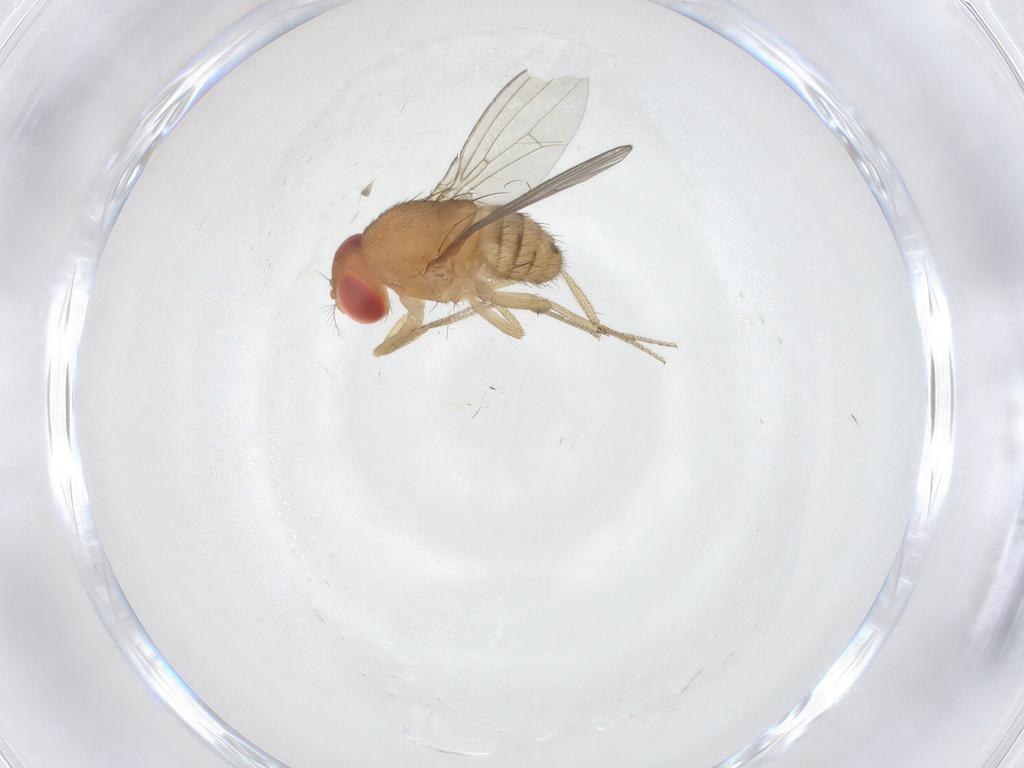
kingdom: Animalia
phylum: Arthropoda
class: Insecta
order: Diptera
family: Drosophilidae
